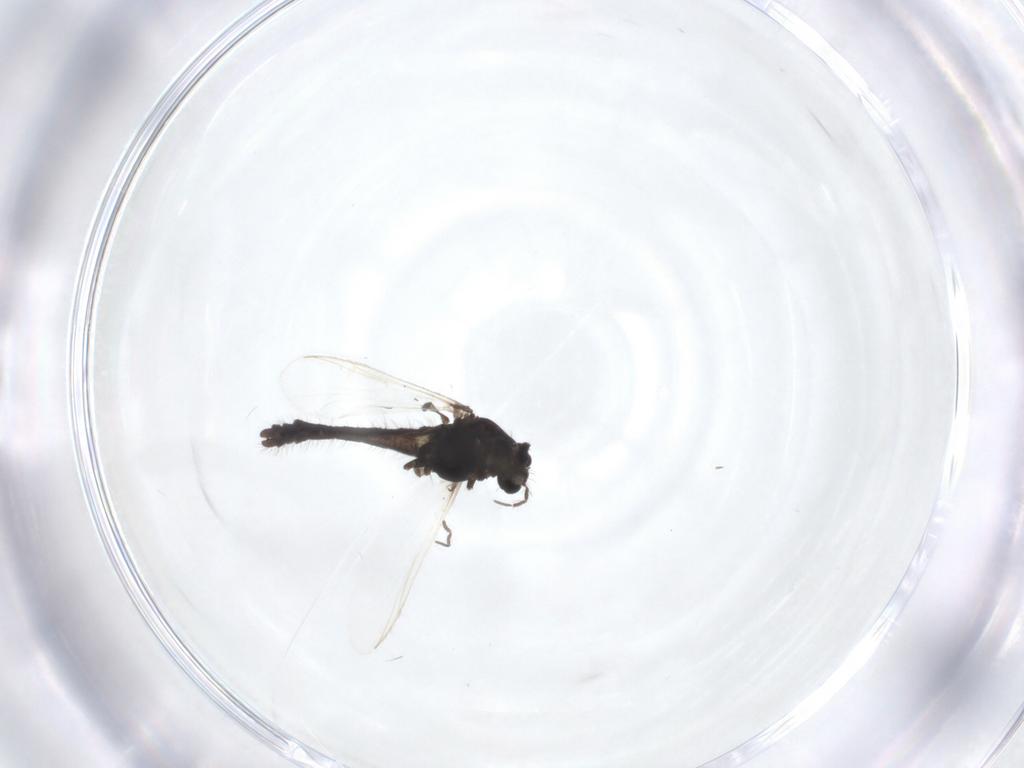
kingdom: Animalia
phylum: Arthropoda
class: Insecta
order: Diptera
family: Ceratopogonidae
